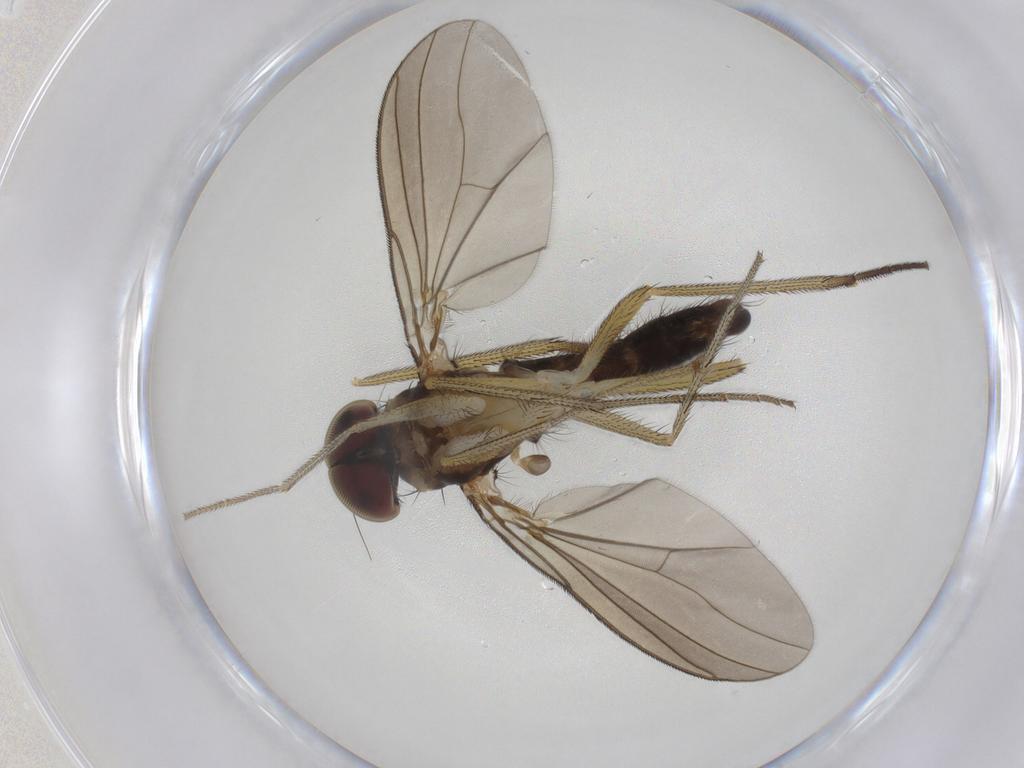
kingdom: Animalia
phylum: Arthropoda
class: Insecta
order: Diptera
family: Dolichopodidae
